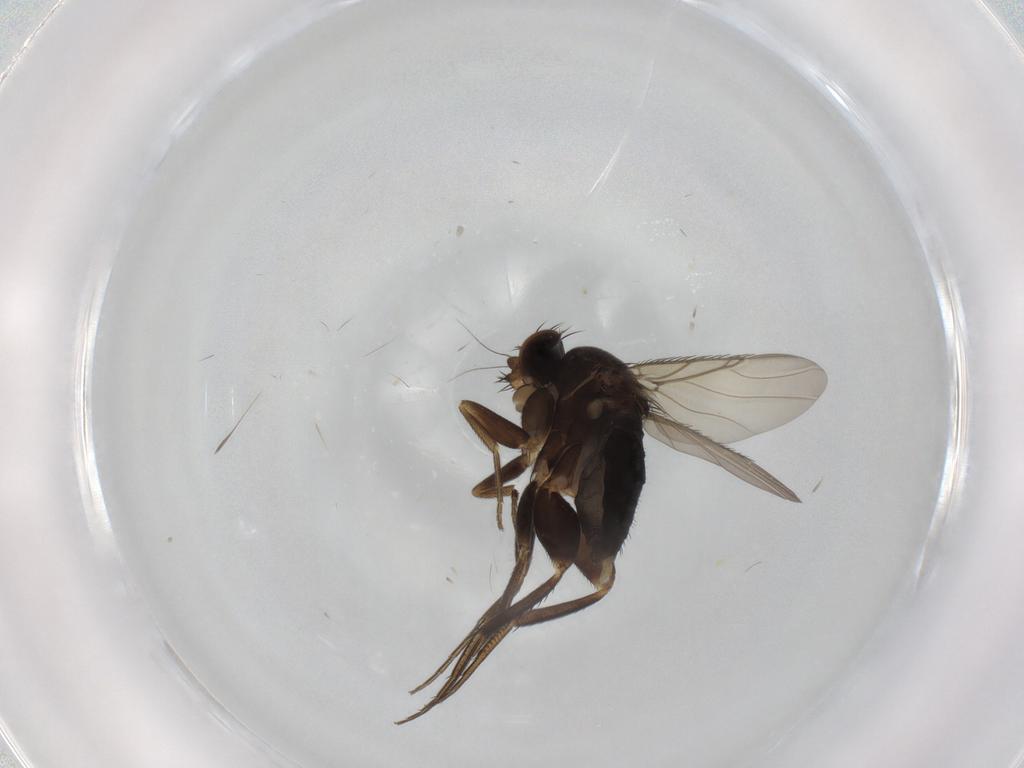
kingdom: Animalia
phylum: Arthropoda
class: Insecta
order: Diptera
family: Phoridae
